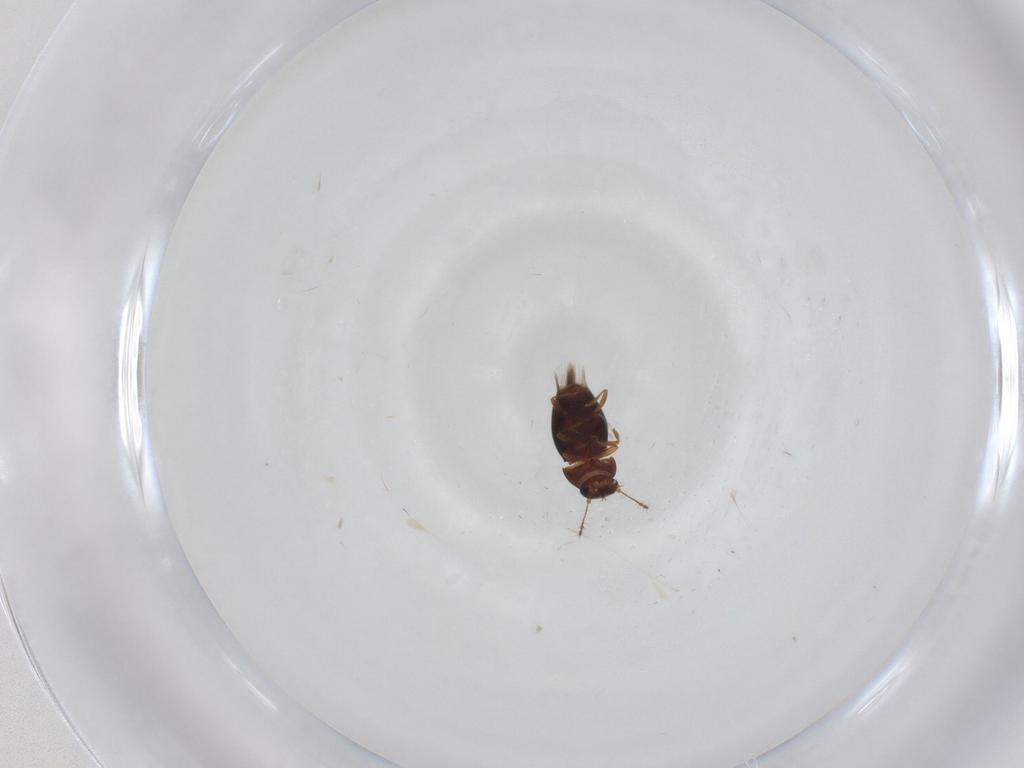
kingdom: Animalia
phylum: Arthropoda
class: Insecta
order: Coleoptera
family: Ptiliidae
